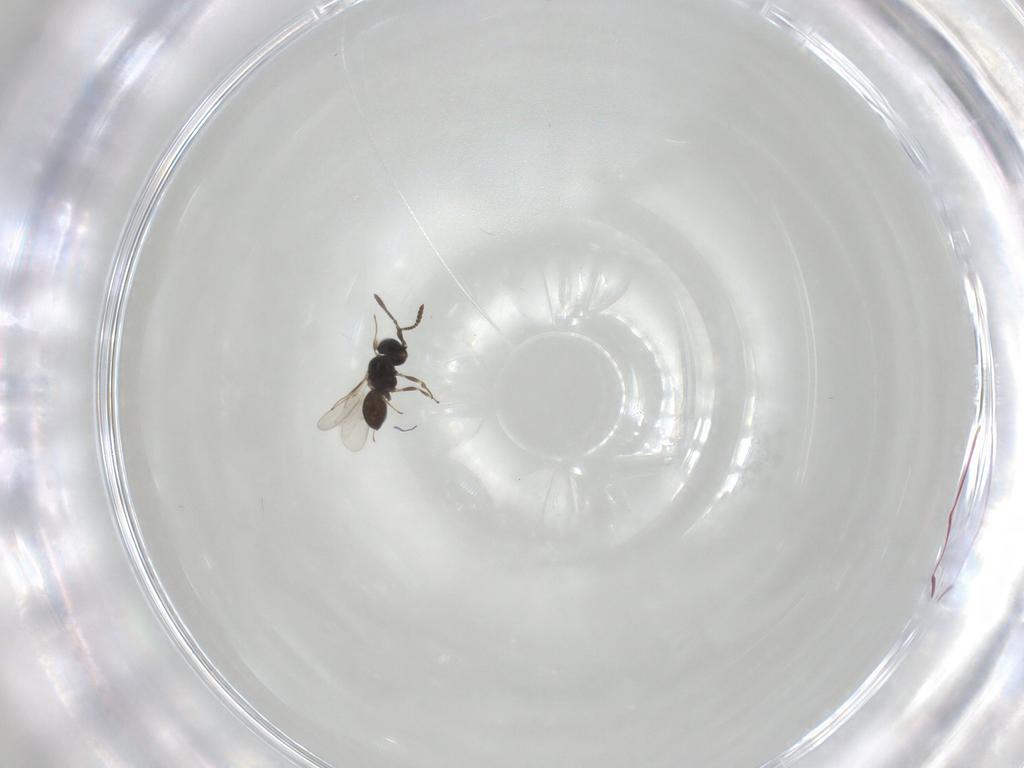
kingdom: Animalia
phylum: Arthropoda
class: Insecta
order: Hymenoptera
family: Scelionidae
